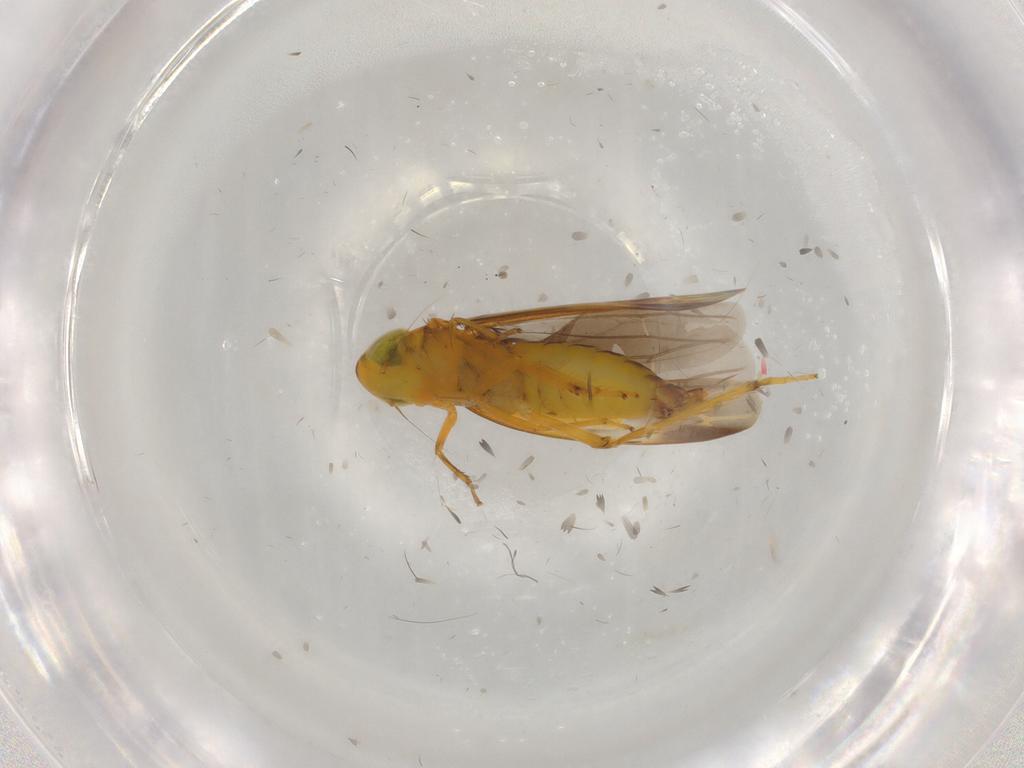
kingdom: Animalia
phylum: Arthropoda
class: Insecta
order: Hemiptera
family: Cicadellidae
